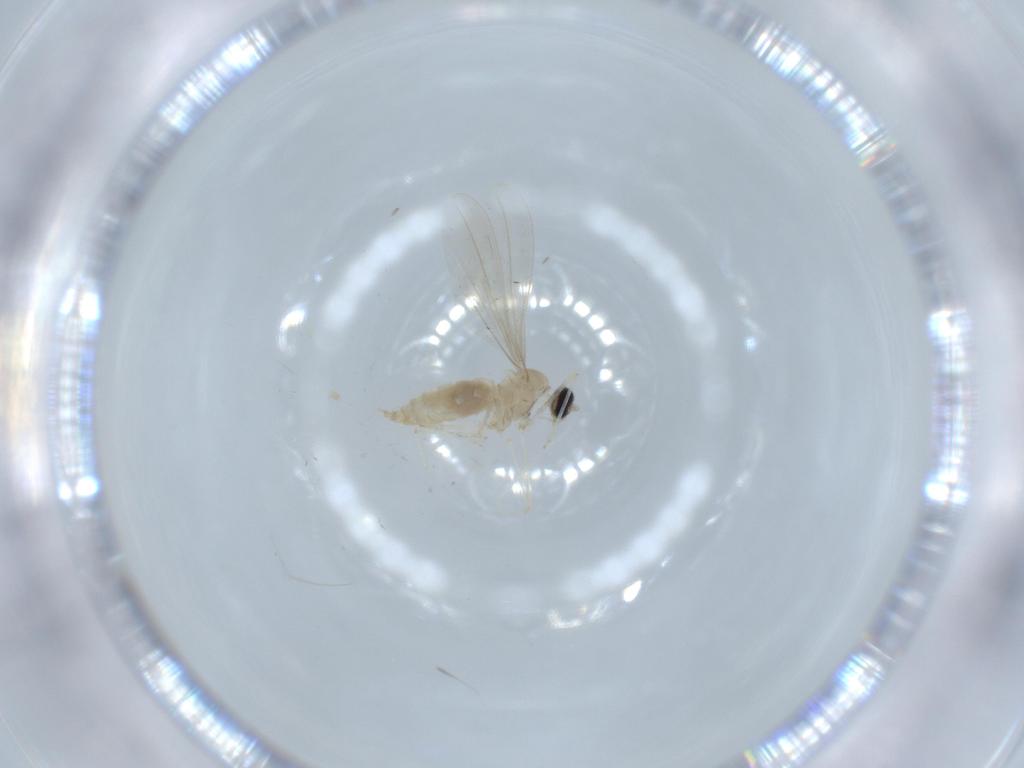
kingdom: Animalia
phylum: Arthropoda
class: Insecta
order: Diptera
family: Cecidomyiidae
